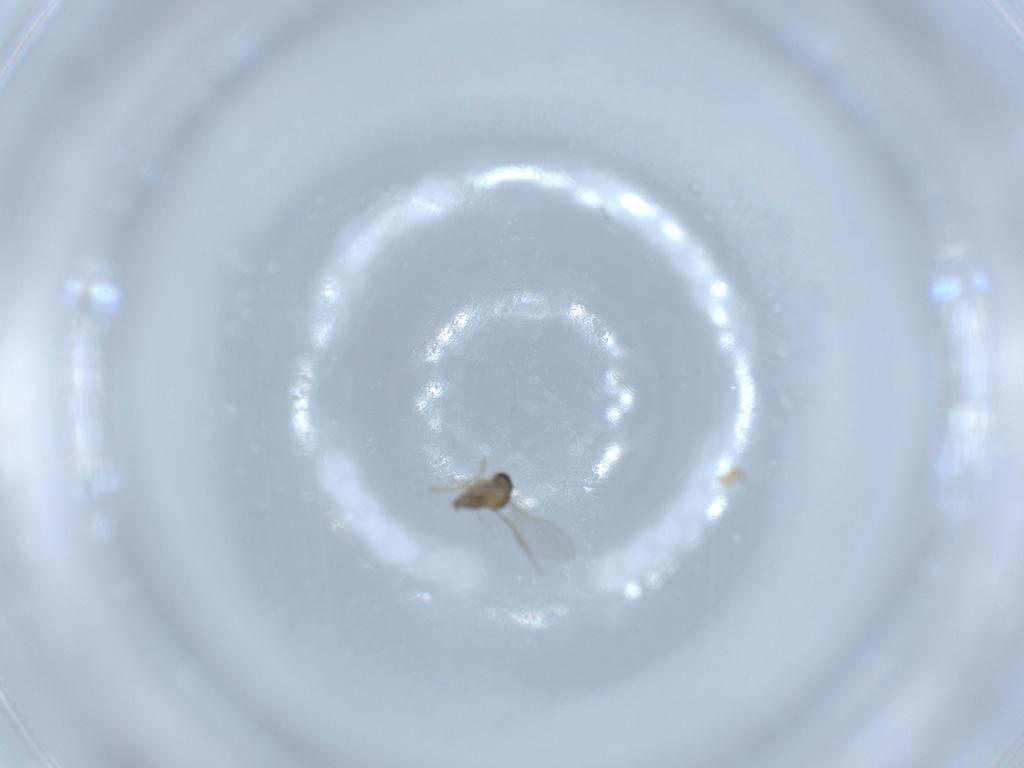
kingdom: Animalia
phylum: Arthropoda
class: Insecta
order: Diptera
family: Cecidomyiidae
